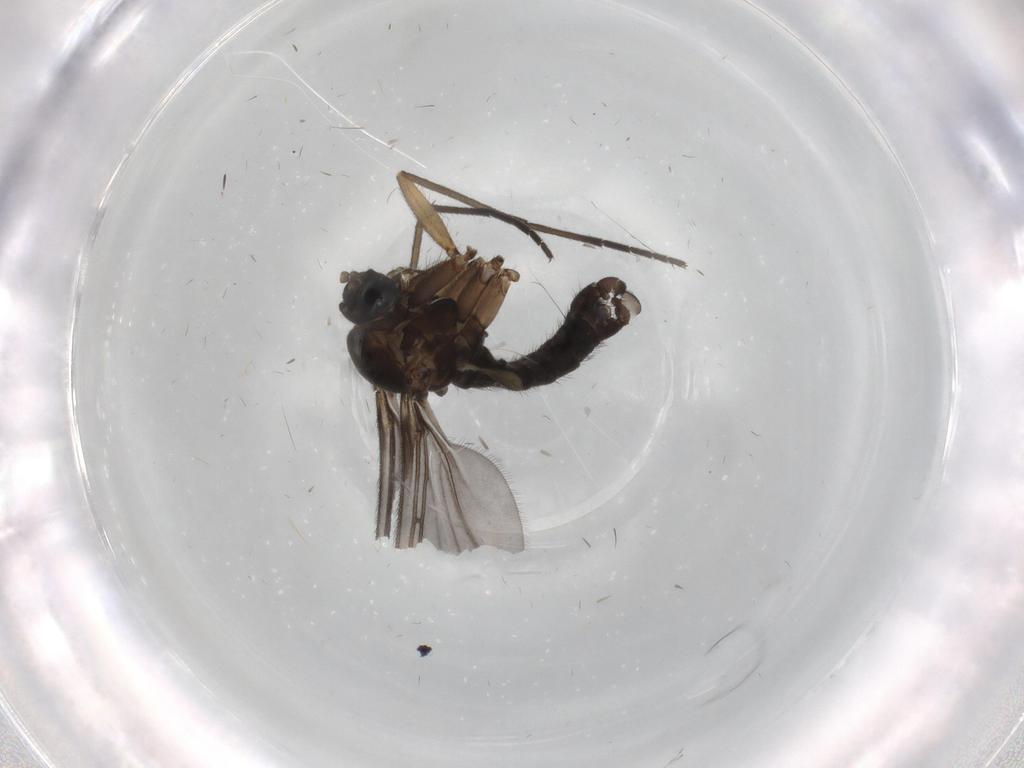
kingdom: Animalia
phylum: Arthropoda
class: Insecta
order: Diptera
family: Sciaridae
